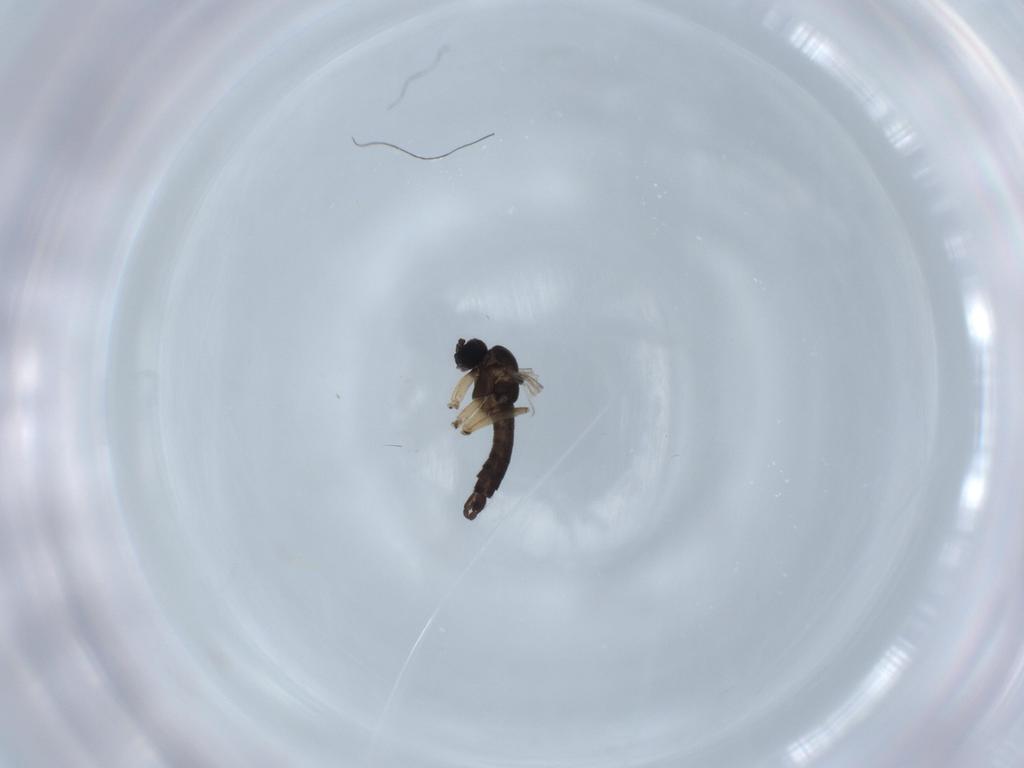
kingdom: Animalia
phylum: Arthropoda
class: Insecta
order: Diptera
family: Sciaridae
